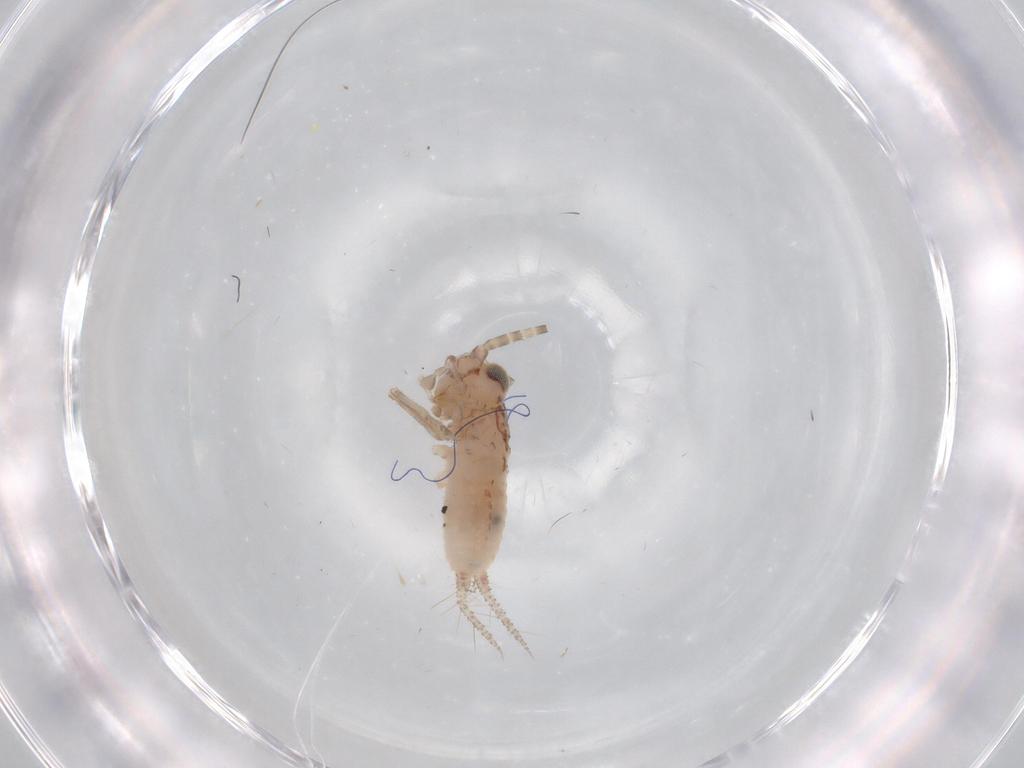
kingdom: Animalia
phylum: Arthropoda
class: Insecta
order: Orthoptera
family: Trigonidiidae
